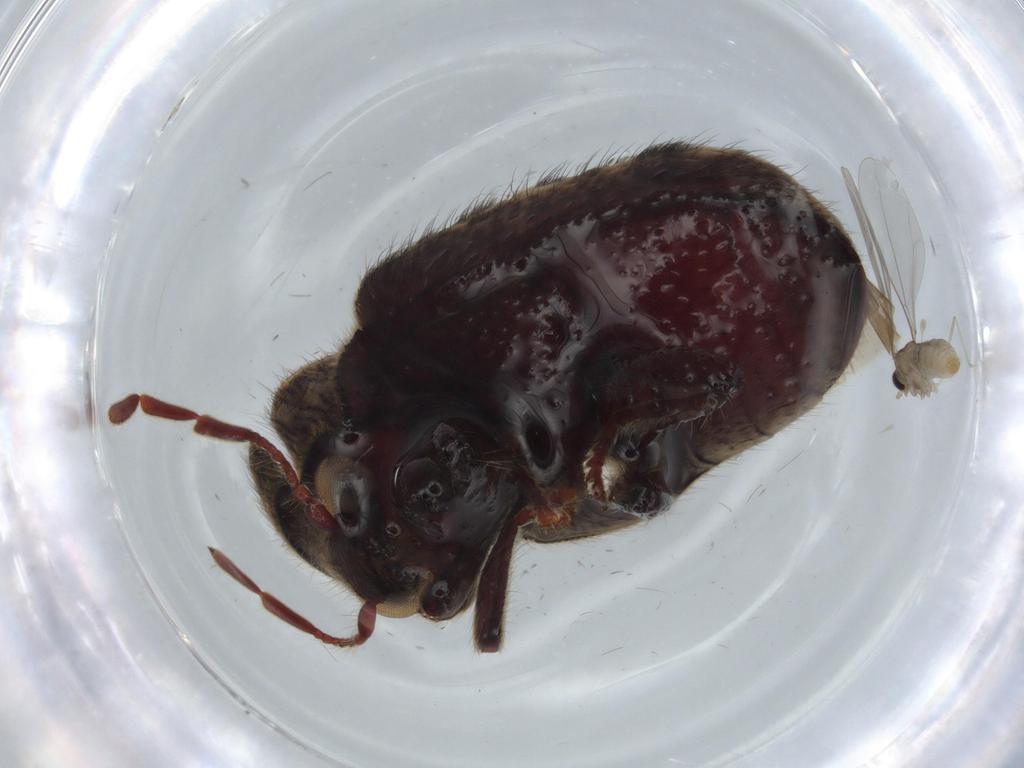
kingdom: Animalia
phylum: Arthropoda
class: Insecta
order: Coleoptera
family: Ptinidae
